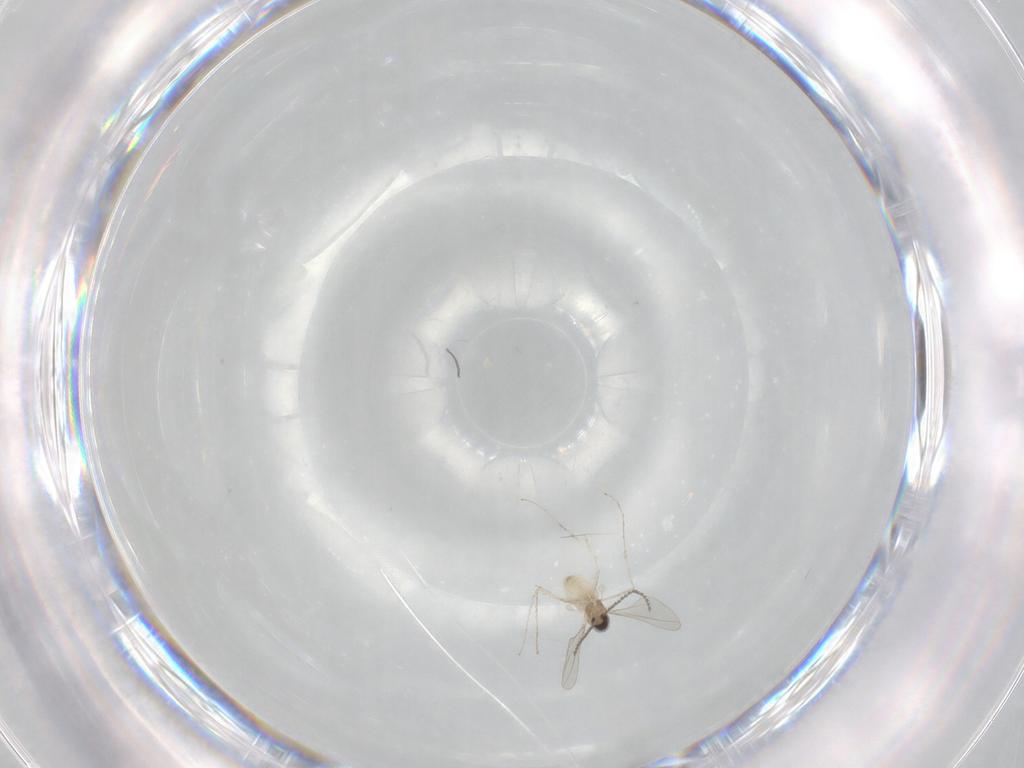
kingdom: Animalia
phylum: Arthropoda
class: Insecta
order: Diptera
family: Cecidomyiidae
